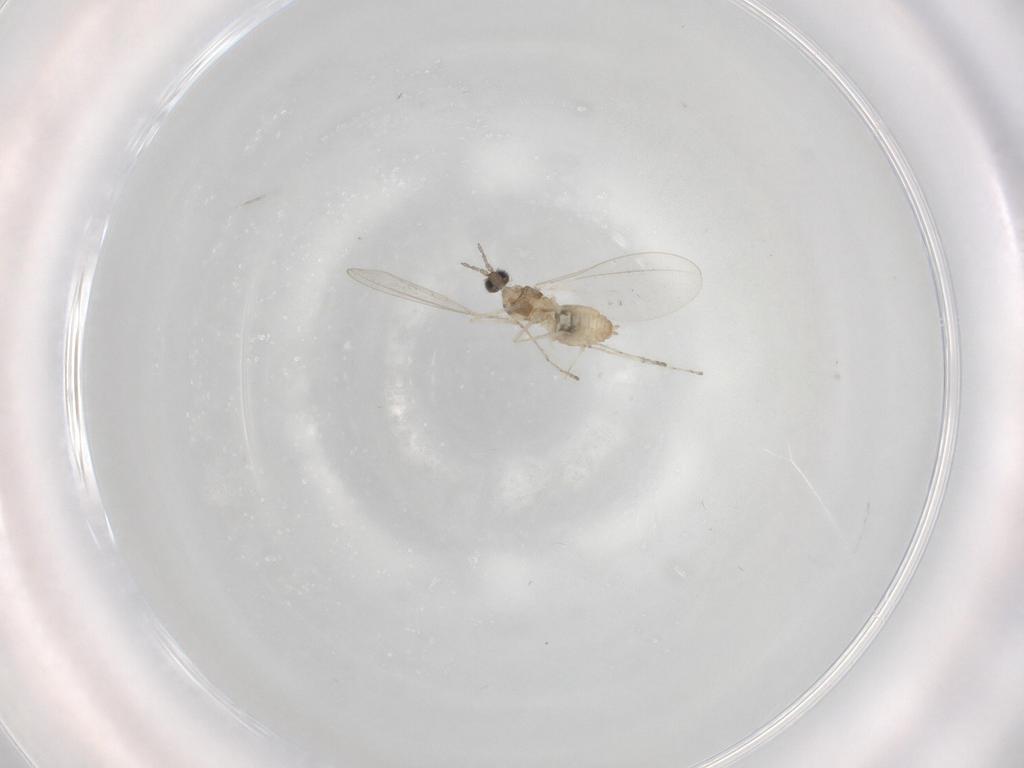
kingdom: Animalia
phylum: Arthropoda
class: Insecta
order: Diptera
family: Cecidomyiidae
